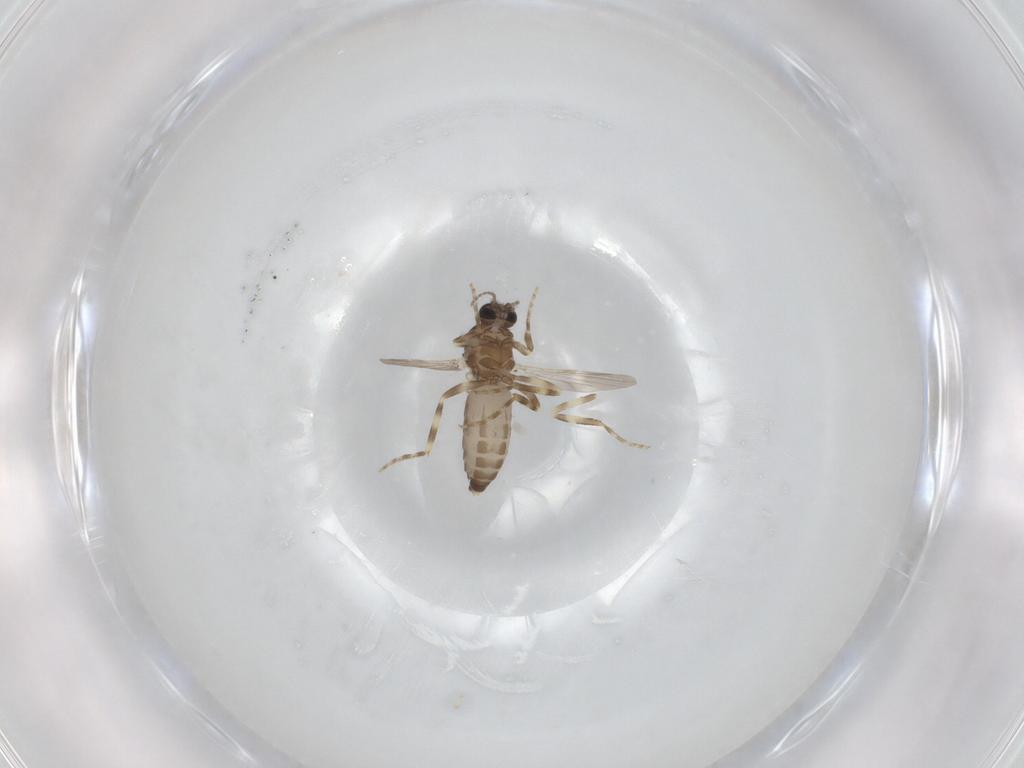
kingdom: Animalia
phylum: Arthropoda
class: Insecta
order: Diptera
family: Ceratopogonidae
